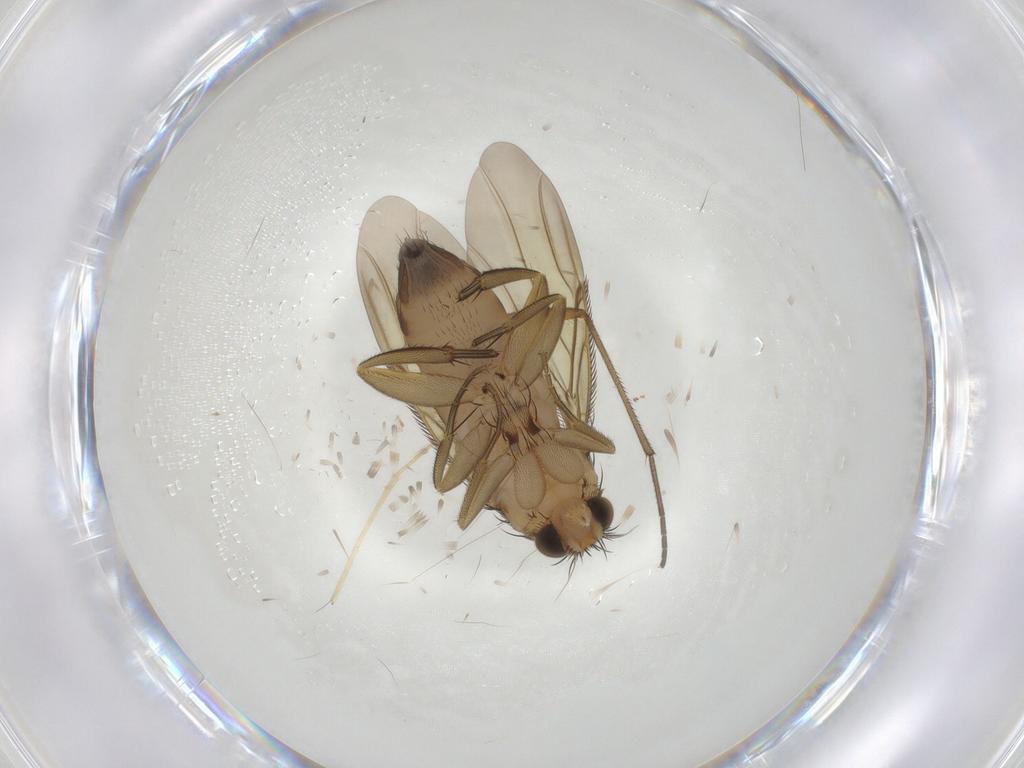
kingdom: Animalia
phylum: Arthropoda
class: Insecta
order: Diptera
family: Phoridae
